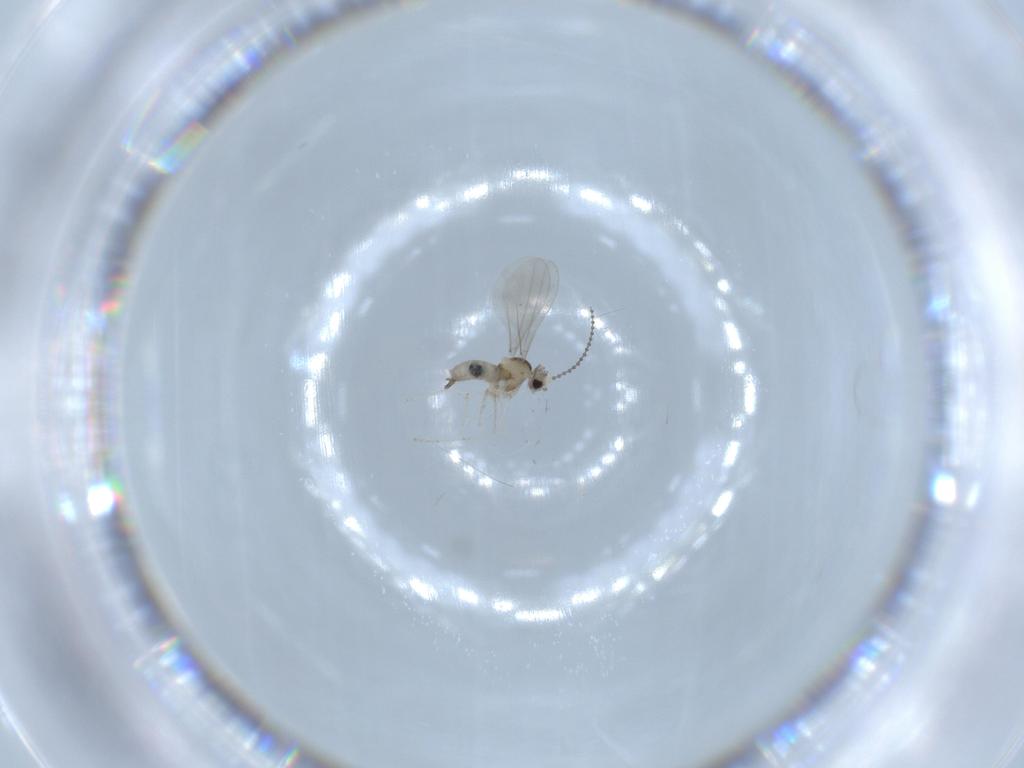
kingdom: Animalia
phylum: Arthropoda
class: Insecta
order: Diptera
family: Cecidomyiidae
